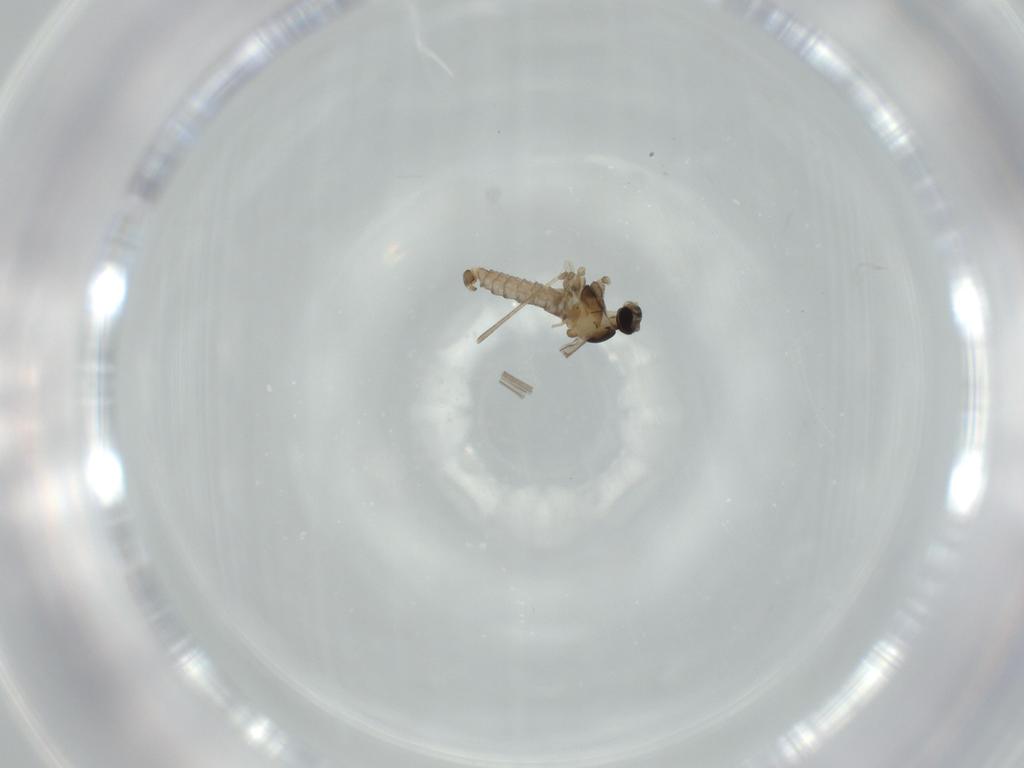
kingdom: Animalia
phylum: Arthropoda
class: Insecta
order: Diptera
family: Cecidomyiidae
